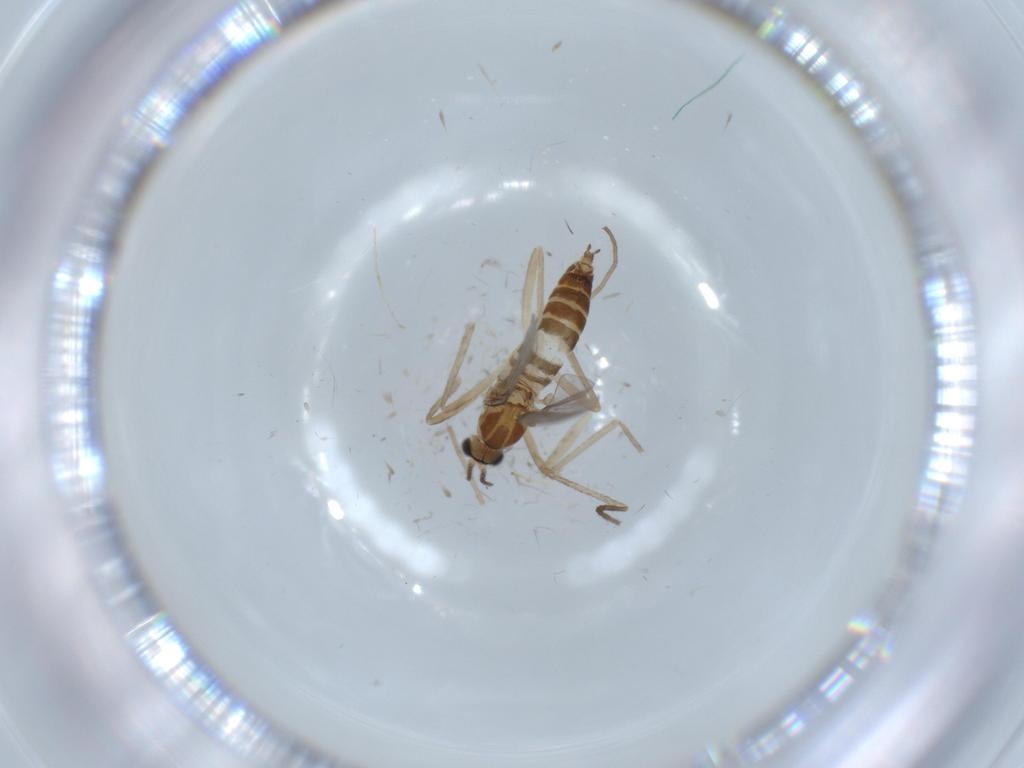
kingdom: Animalia
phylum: Arthropoda
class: Insecta
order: Diptera
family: Cecidomyiidae
